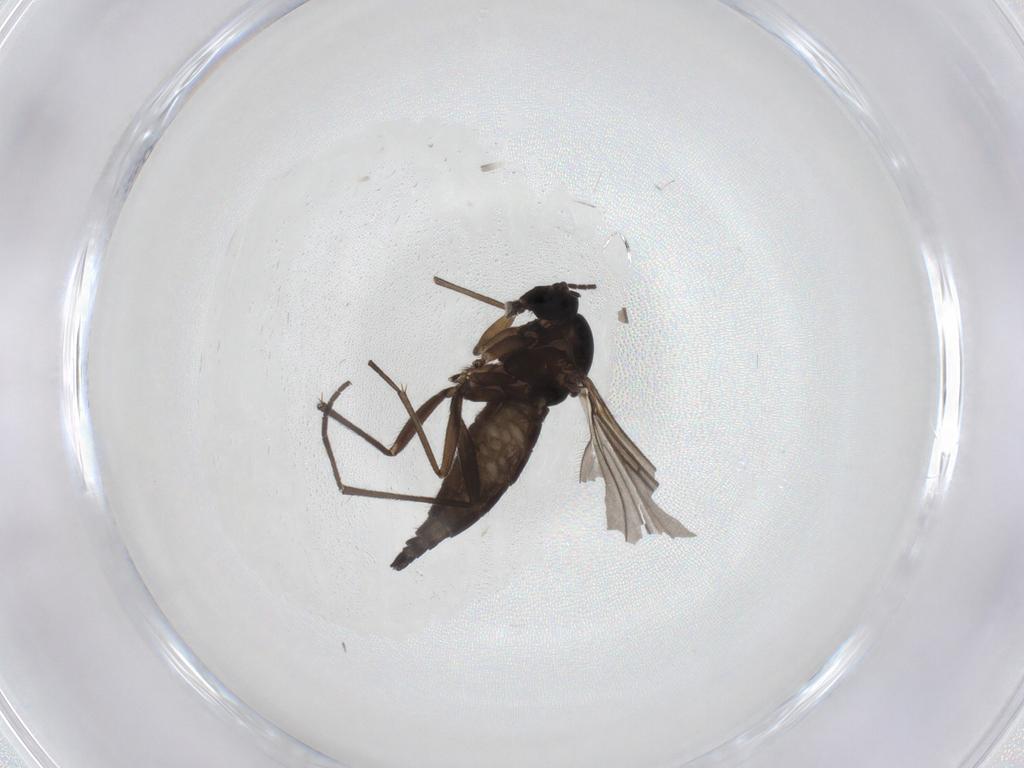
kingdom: Animalia
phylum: Arthropoda
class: Insecta
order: Diptera
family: Sciaridae
